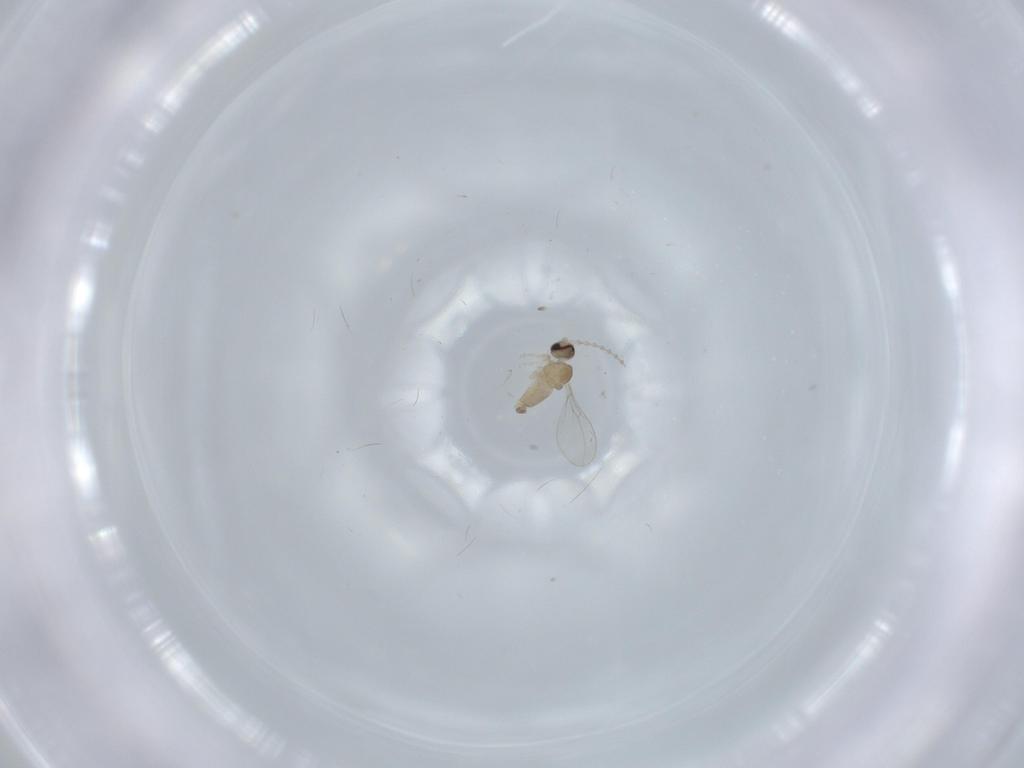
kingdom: Animalia
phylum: Arthropoda
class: Insecta
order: Diptera
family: Cecidomyiidae
